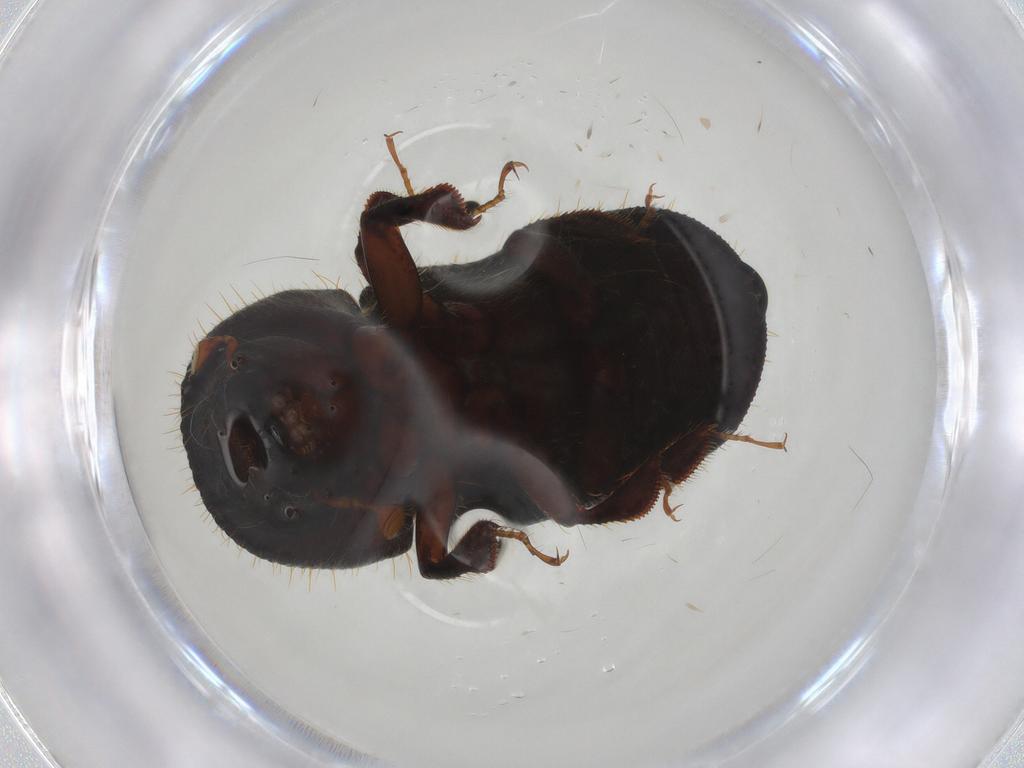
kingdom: Animalia
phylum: Arthropoda
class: Insecta
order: Coleoptera
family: Curculionidae
